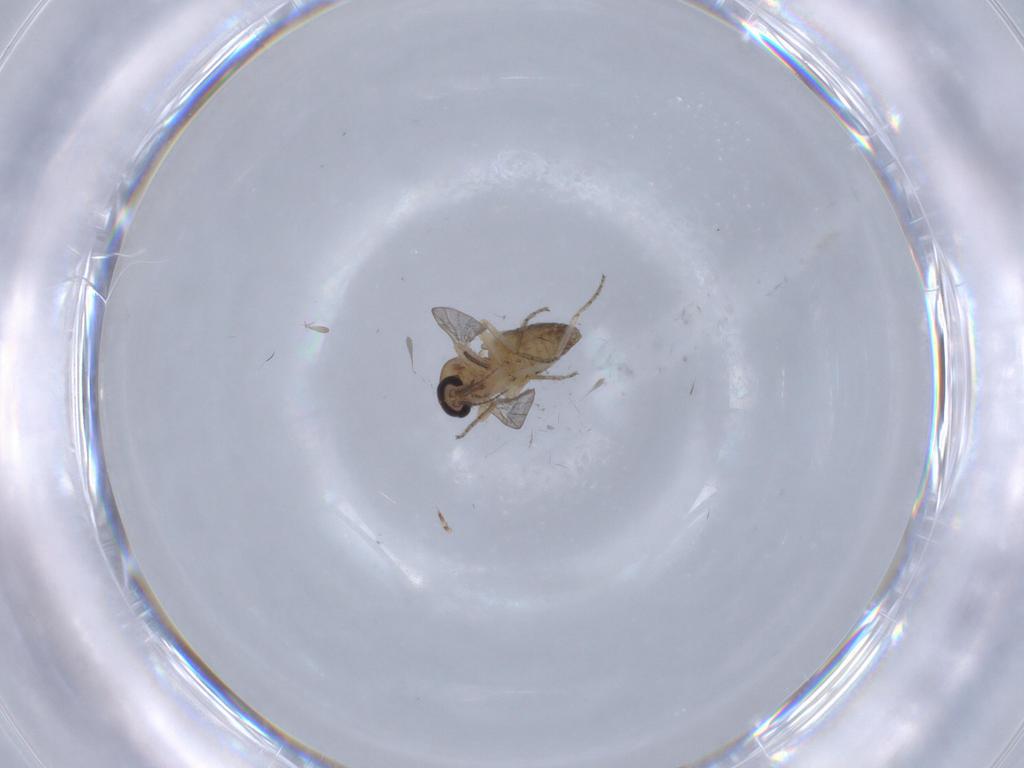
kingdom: Animalia
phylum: Arthropoda
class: Insecta
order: Diptera
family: Ceratopogonidae
